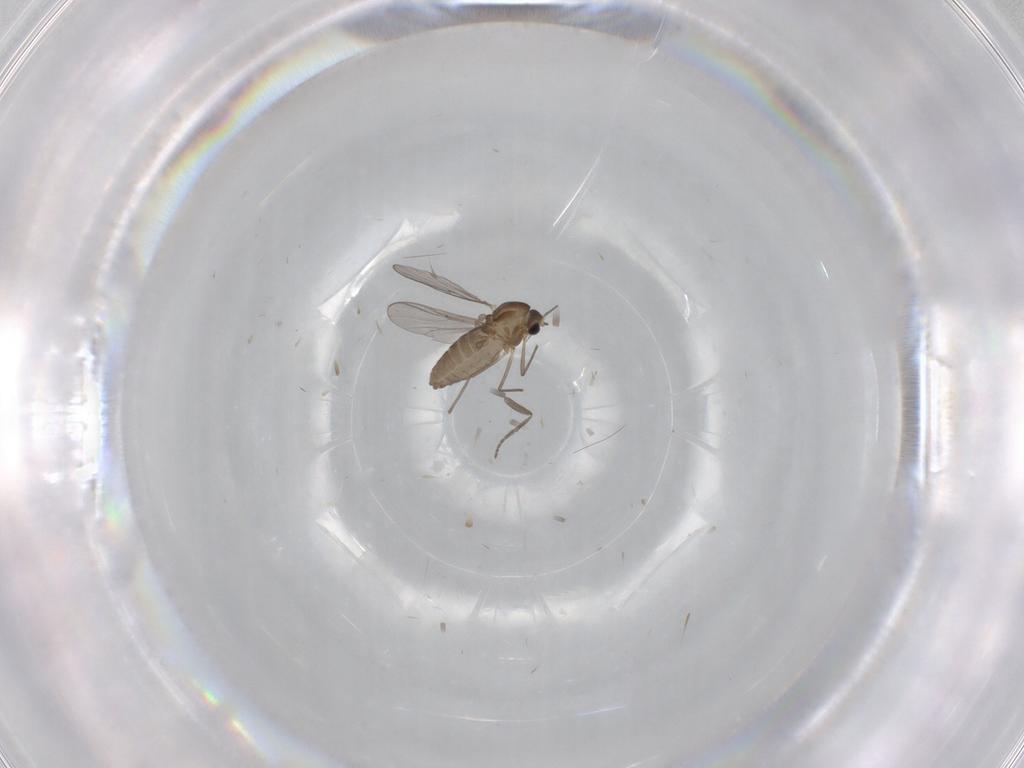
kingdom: Animalia
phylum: Arthropoda
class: Insecta
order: Diptera
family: Chironomidae
